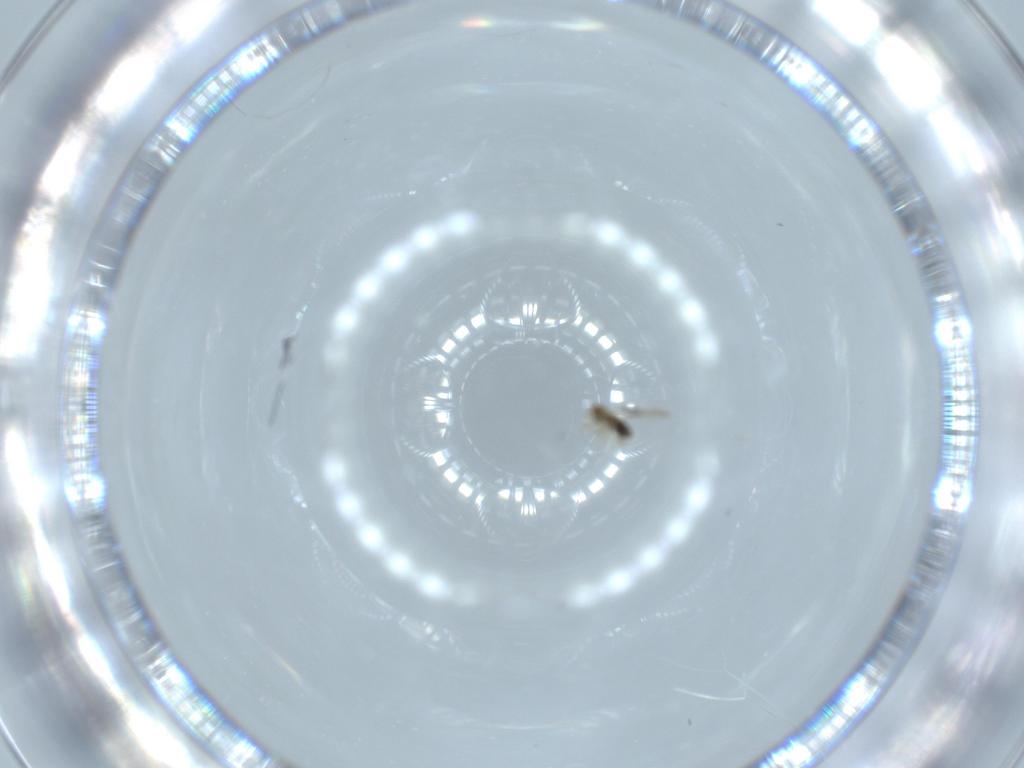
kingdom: Animalia
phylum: Arthropoda
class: Insecta
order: Hymenoptera
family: Aphelinidae
